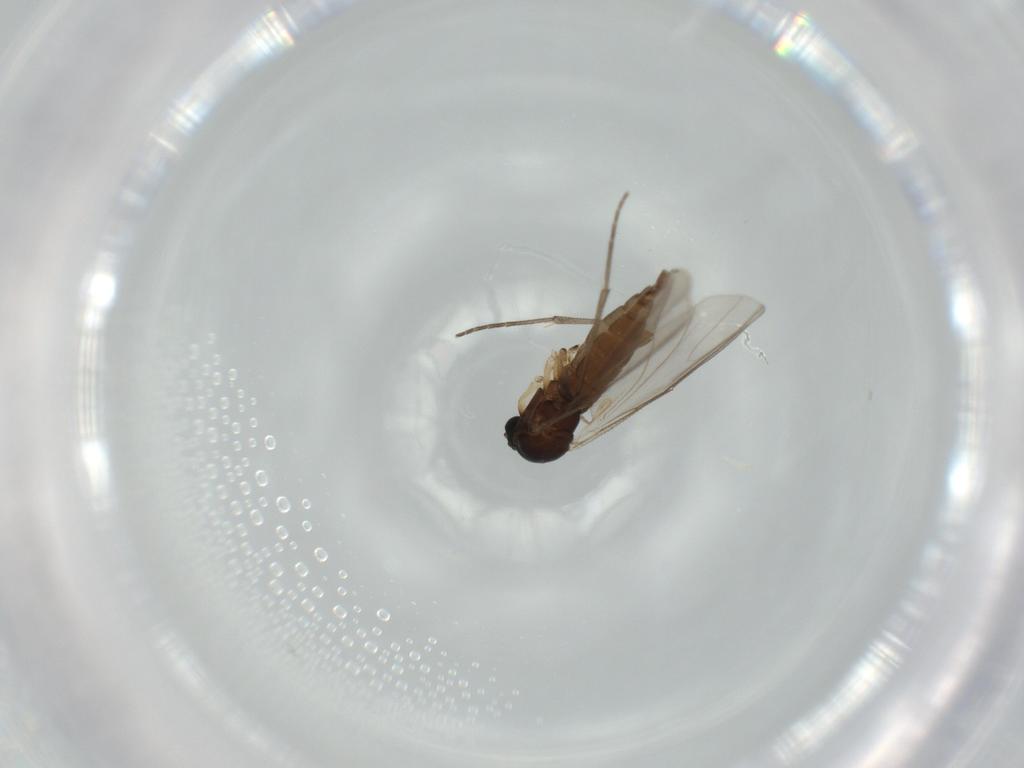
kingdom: Animalia
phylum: Arthropoda
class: Insecta
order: Diptera
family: Sciaridae
